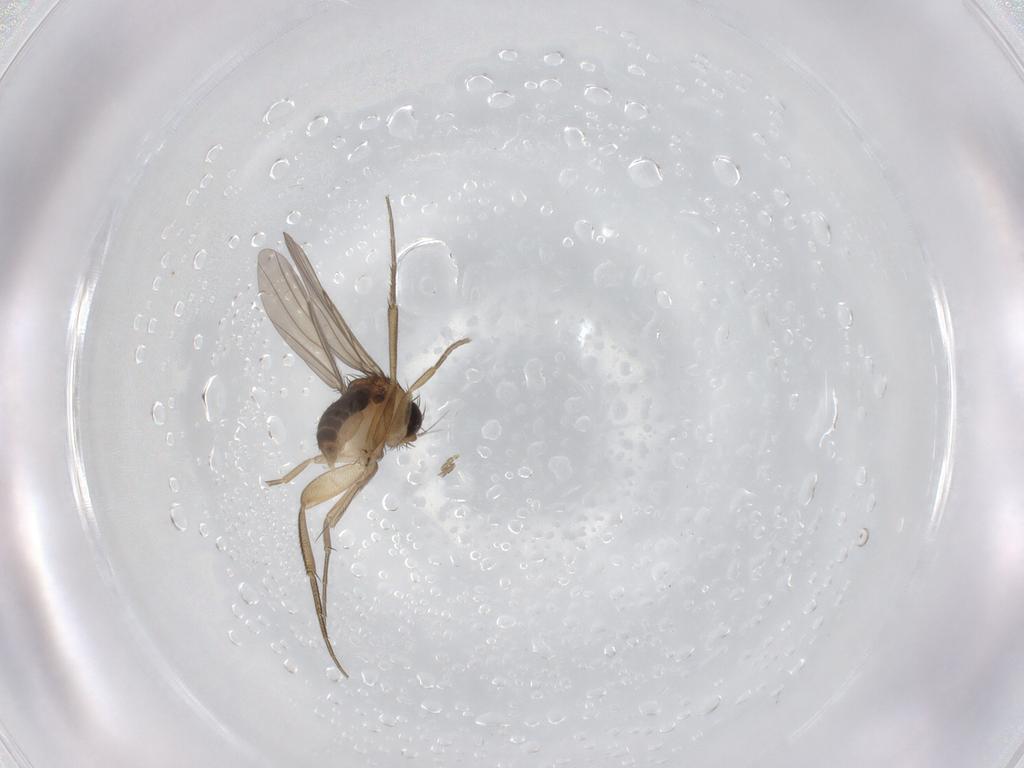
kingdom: Animalia
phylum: Arthropoda
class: Insecta
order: Diptera
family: Phoridae
